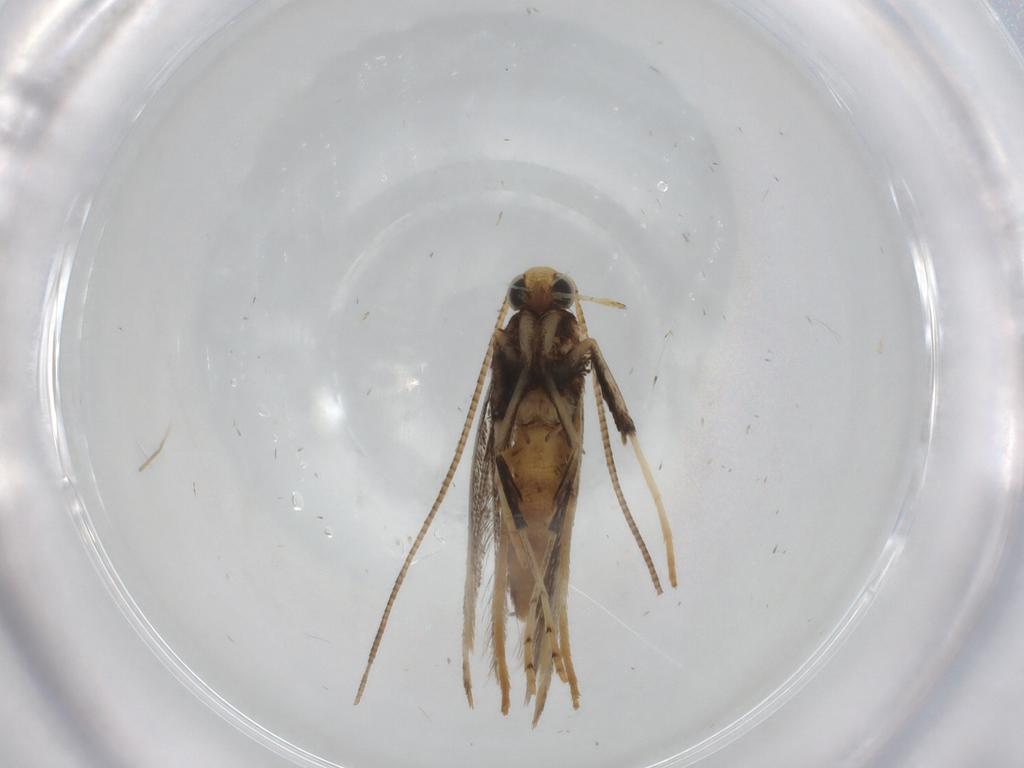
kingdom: Animalia
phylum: Arthropoda
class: Insecta
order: Lepidoptera
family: Gracillariidae
